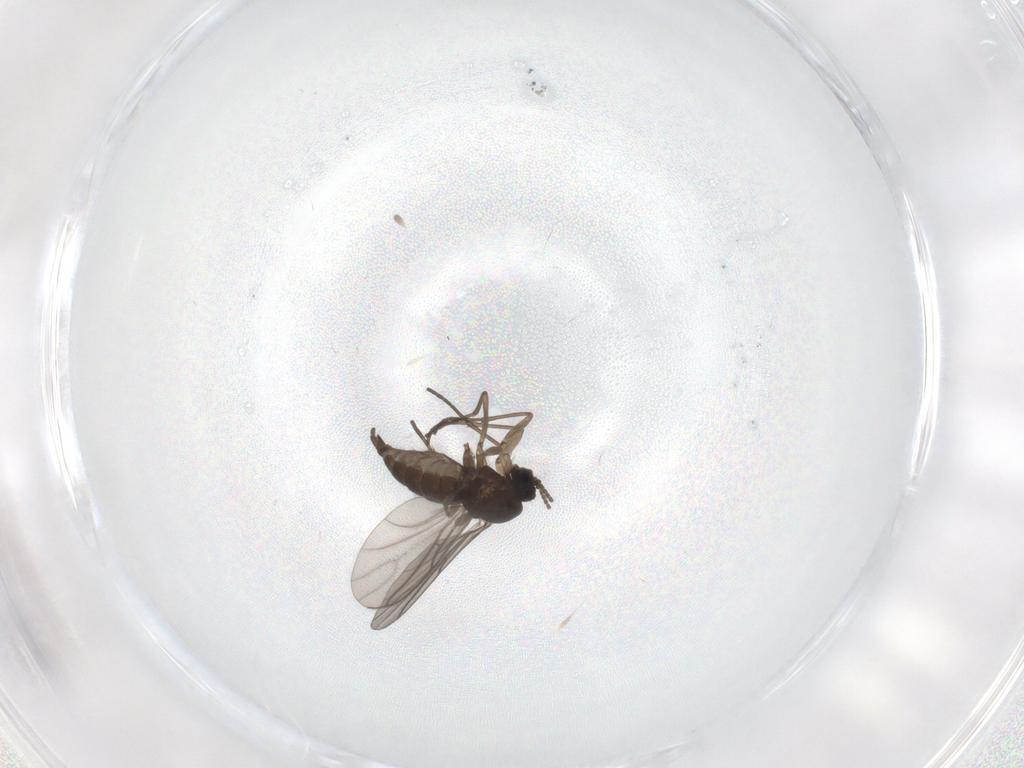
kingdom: Animalia
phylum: Arthropoda
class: Insecta
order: Diptera
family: Sciaridae
